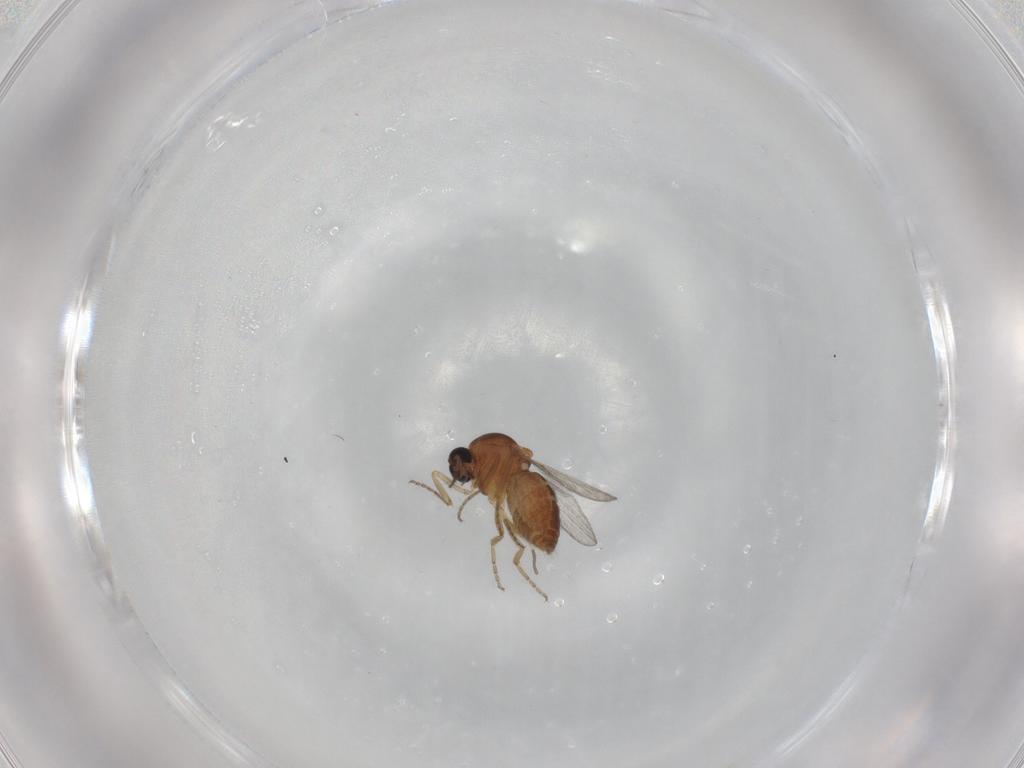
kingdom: Animalia
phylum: Arthropoda
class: Insecta
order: Diptera
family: Ceratopogonidae
